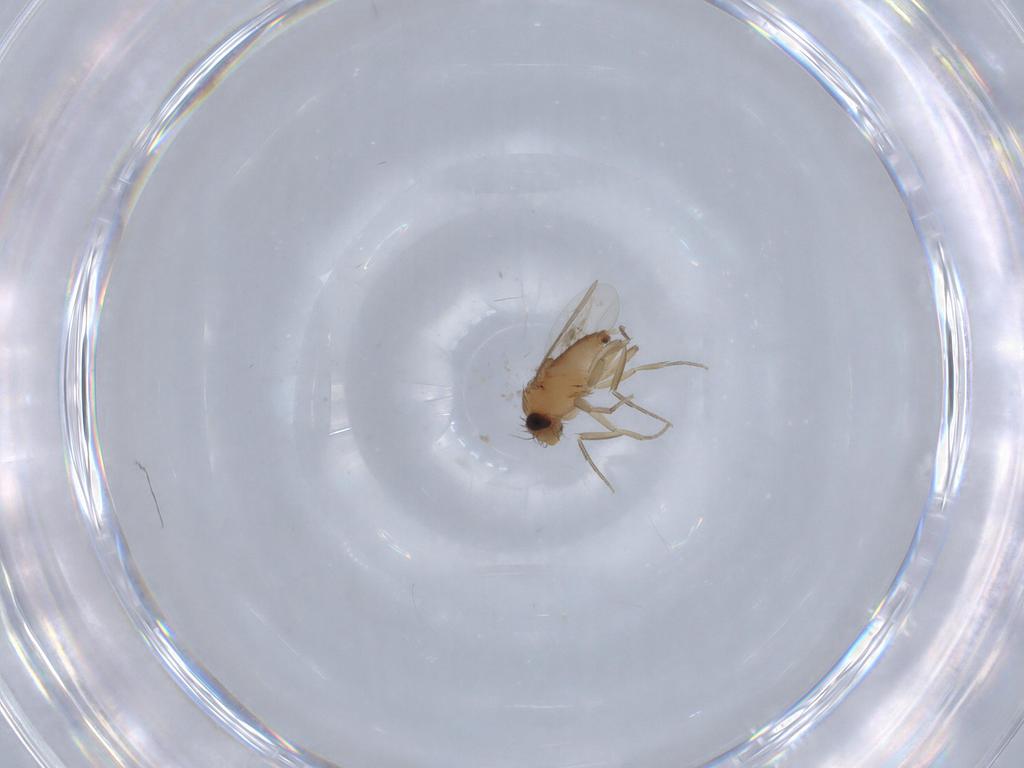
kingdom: Animalia
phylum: Arthropoda
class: Insecta
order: Diptera
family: Phoridae
